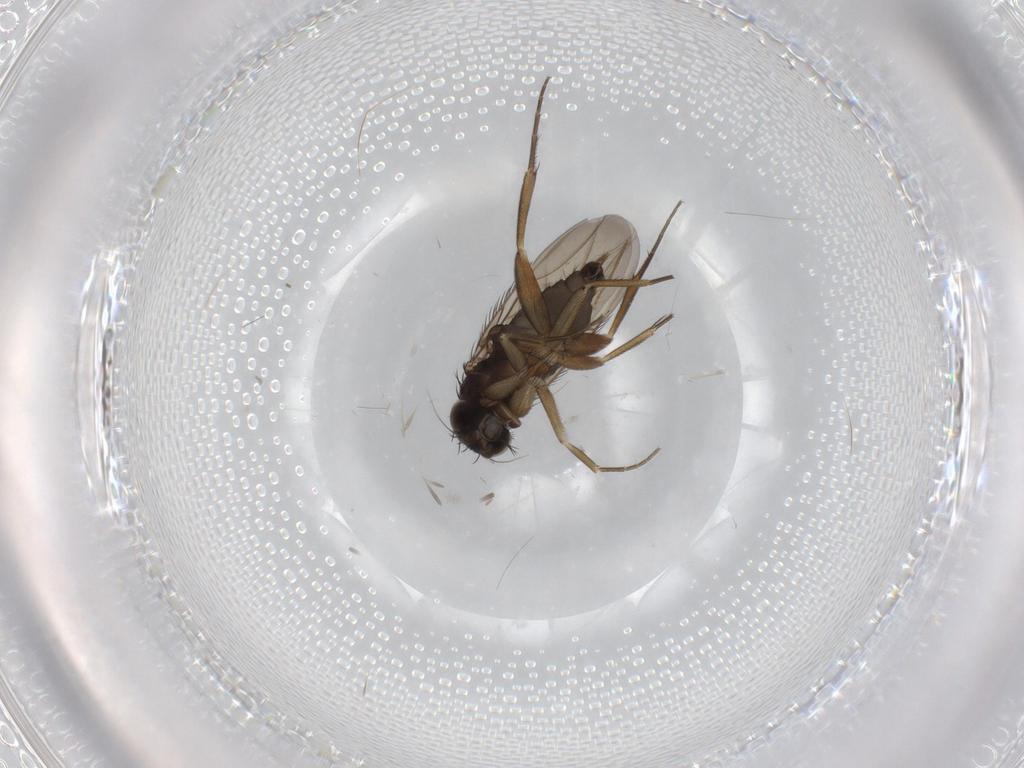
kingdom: Animalia
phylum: Arthropoda
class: Insecta
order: Diptera
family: Phoridae
